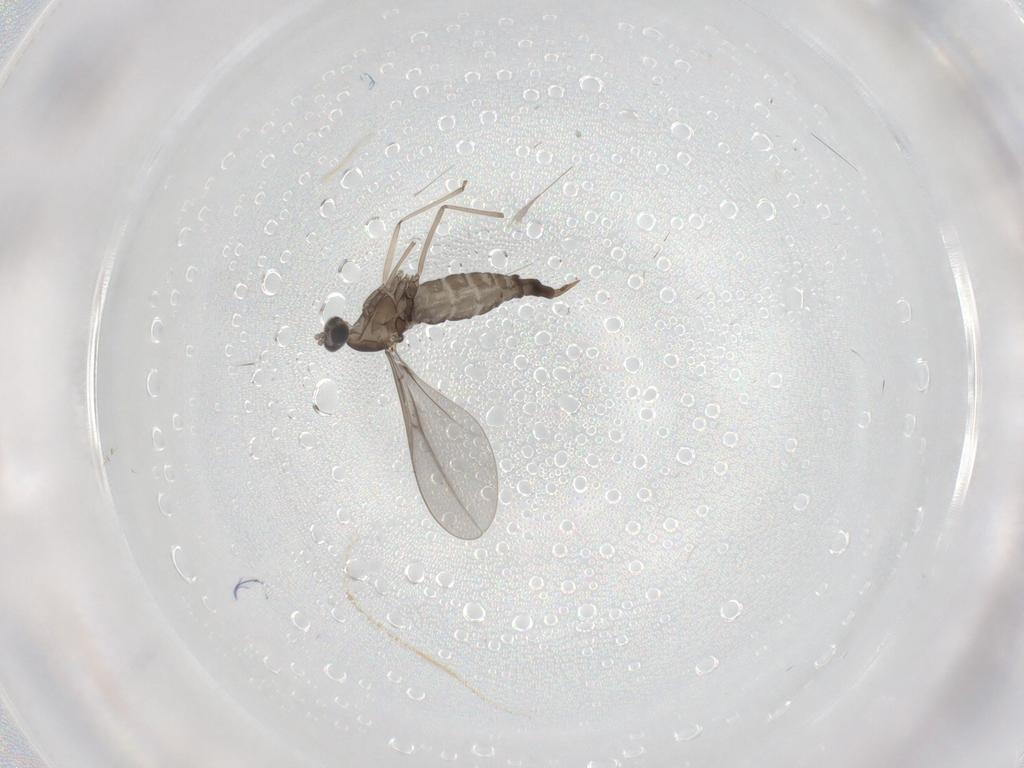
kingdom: Animalia
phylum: Arthropoda
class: Insecta
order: Diptera
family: Cecidomyiidae
